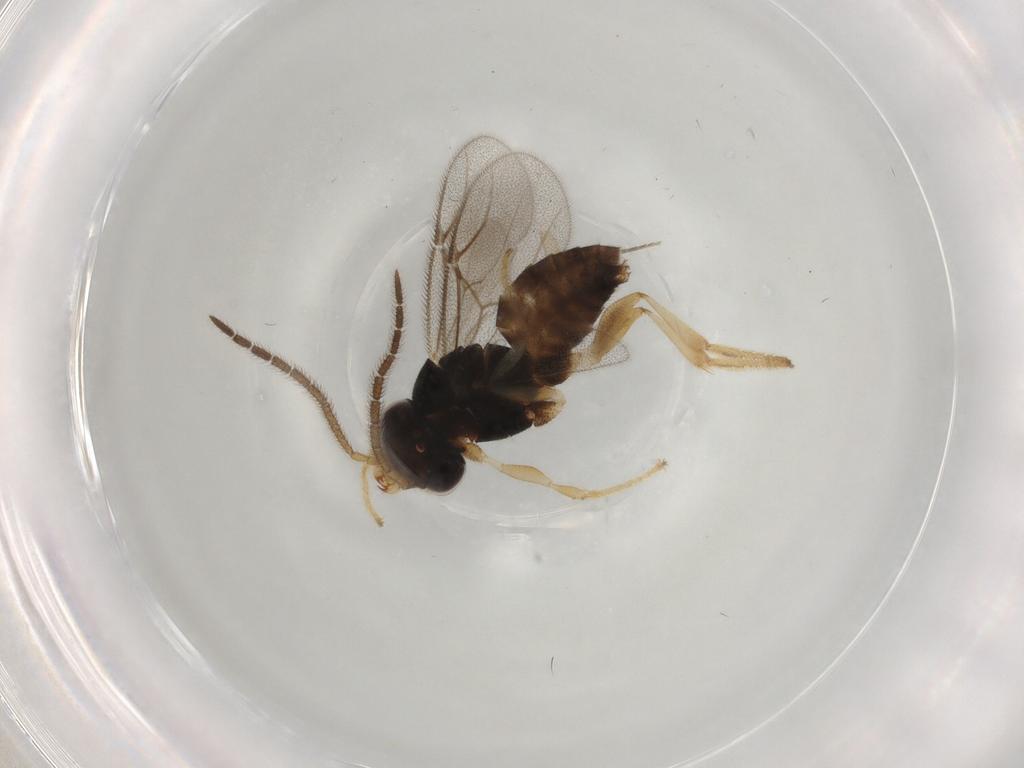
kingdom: Animalia
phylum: Arthropoda
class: Insecta
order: Hymenoptera
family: Dryinidae
